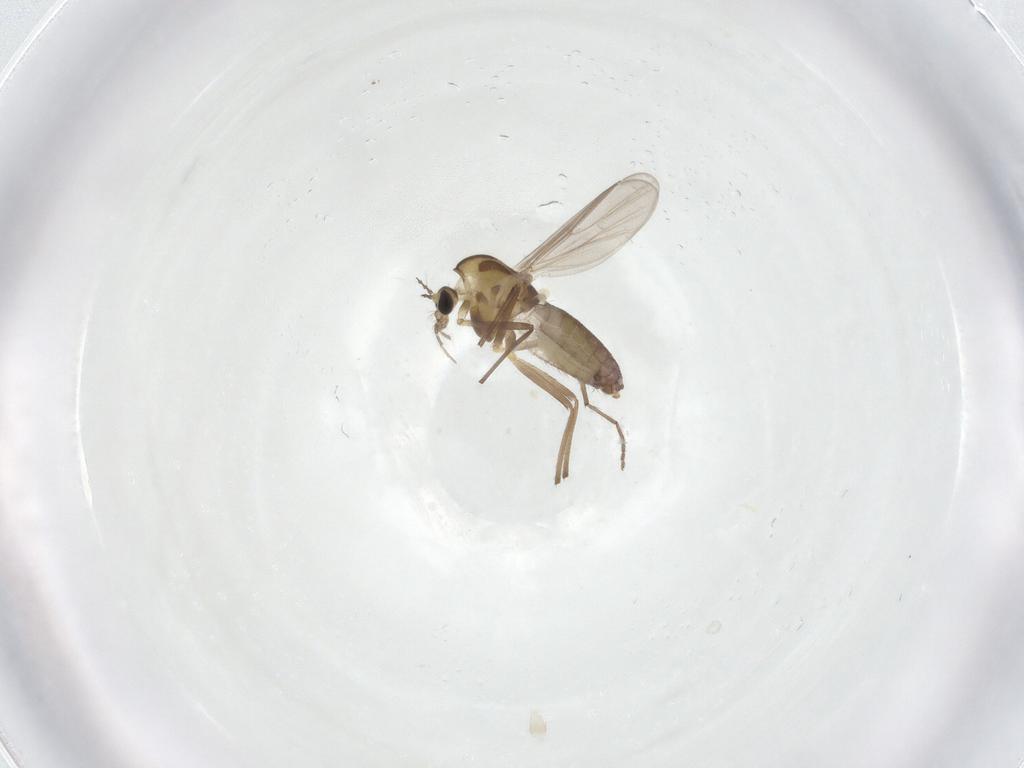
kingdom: Animalia
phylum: Arthropoda
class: Insecta
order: Diptera
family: Chironomidae
